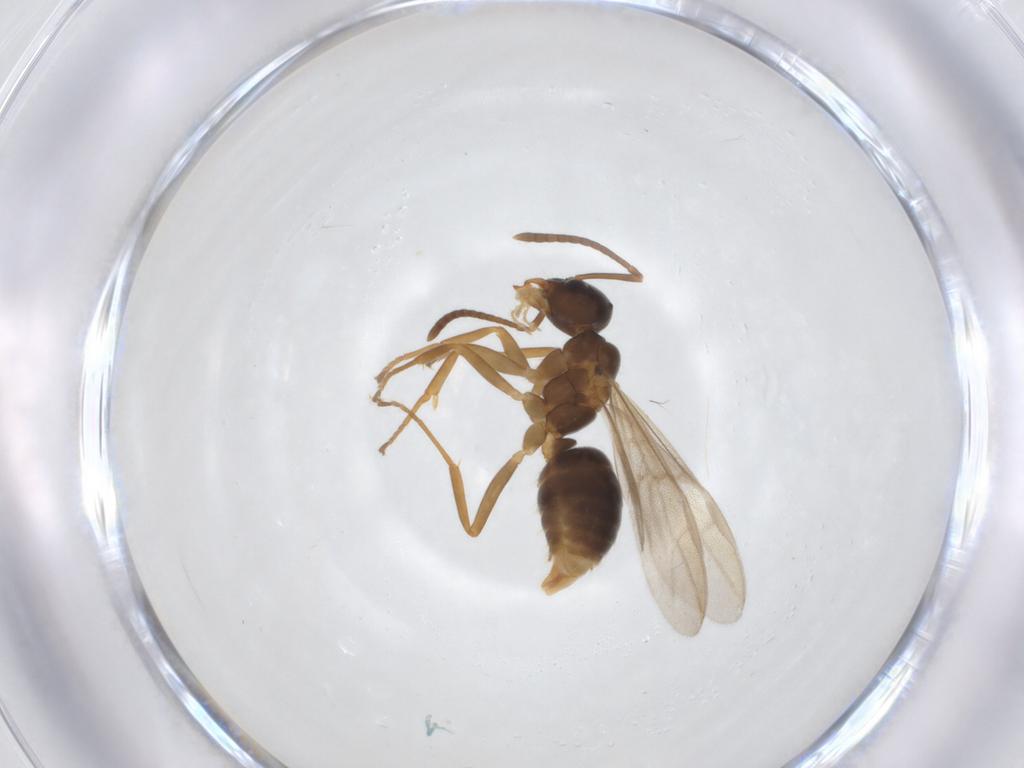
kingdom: Animalia
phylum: Arthropoda
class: Insecta
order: Hymenoptera
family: Formicidae
